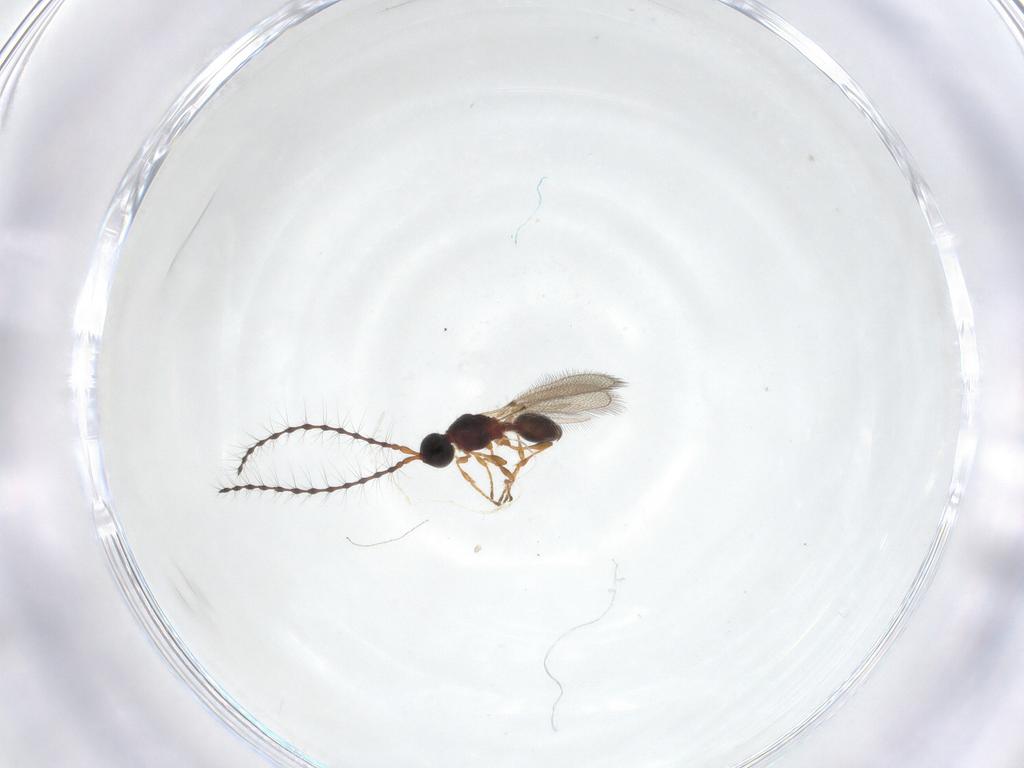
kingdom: Animalia
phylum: Arthropoda
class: Insecta
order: Hymenoptera
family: Diapriidae
